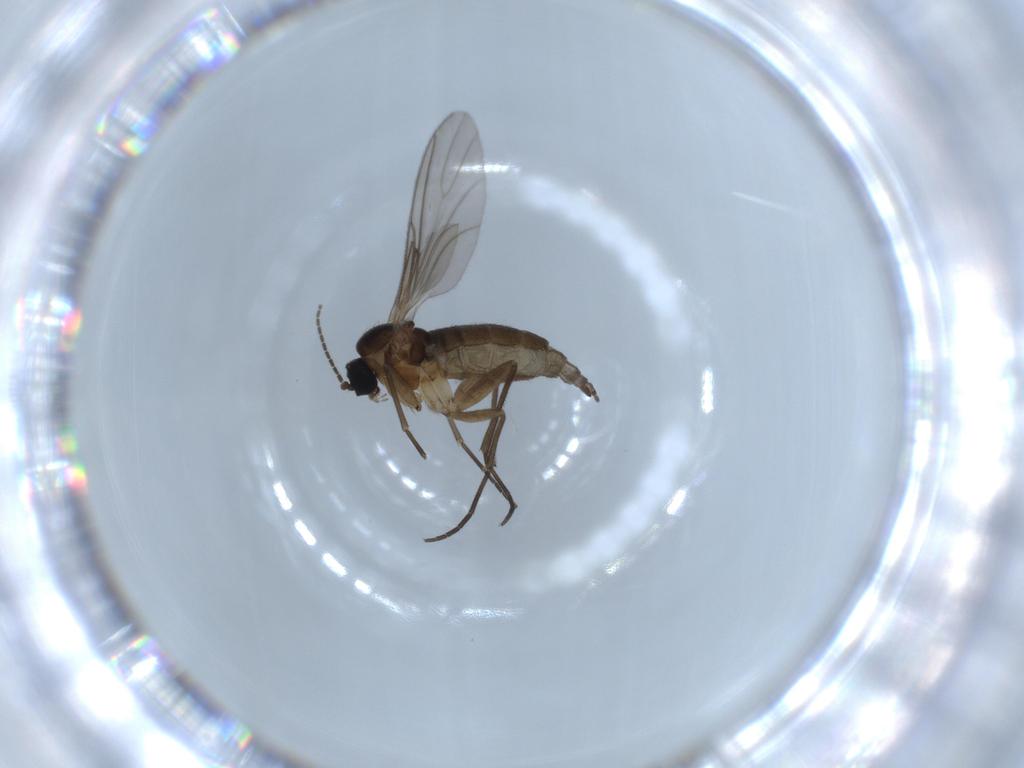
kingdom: Animalia
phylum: Arthropoda
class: Insecta
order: Diptera
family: Sciaridae
